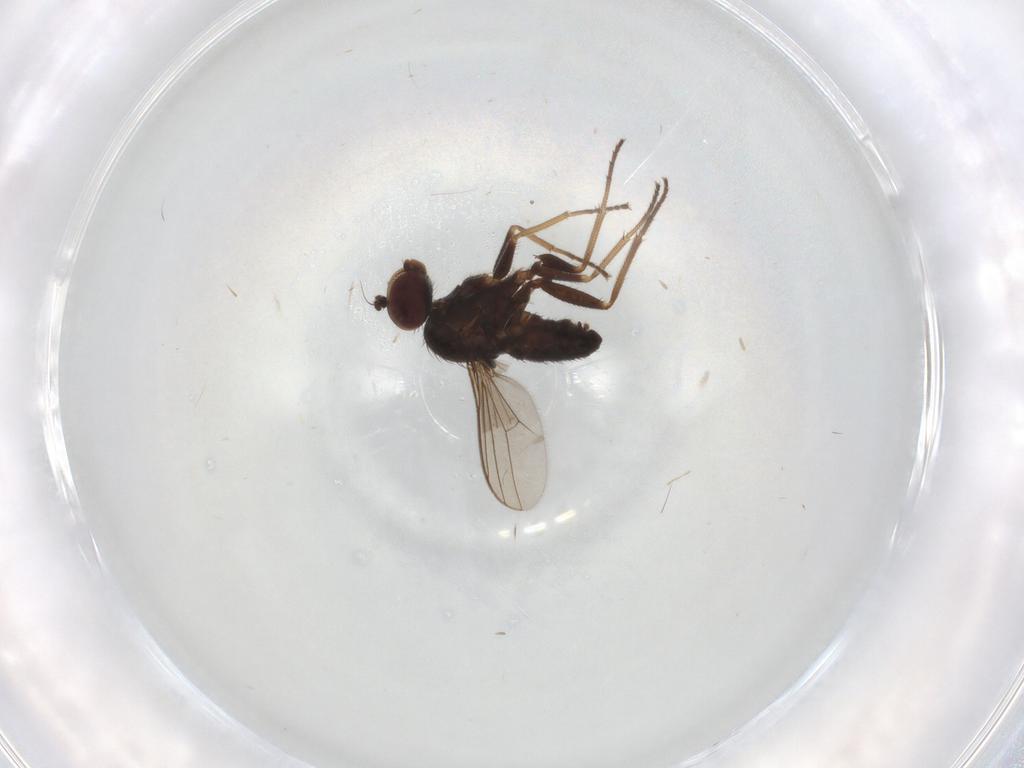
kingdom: Animalia
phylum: Arthropoda
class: Insecta
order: Diptera
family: Dolichopodidae
